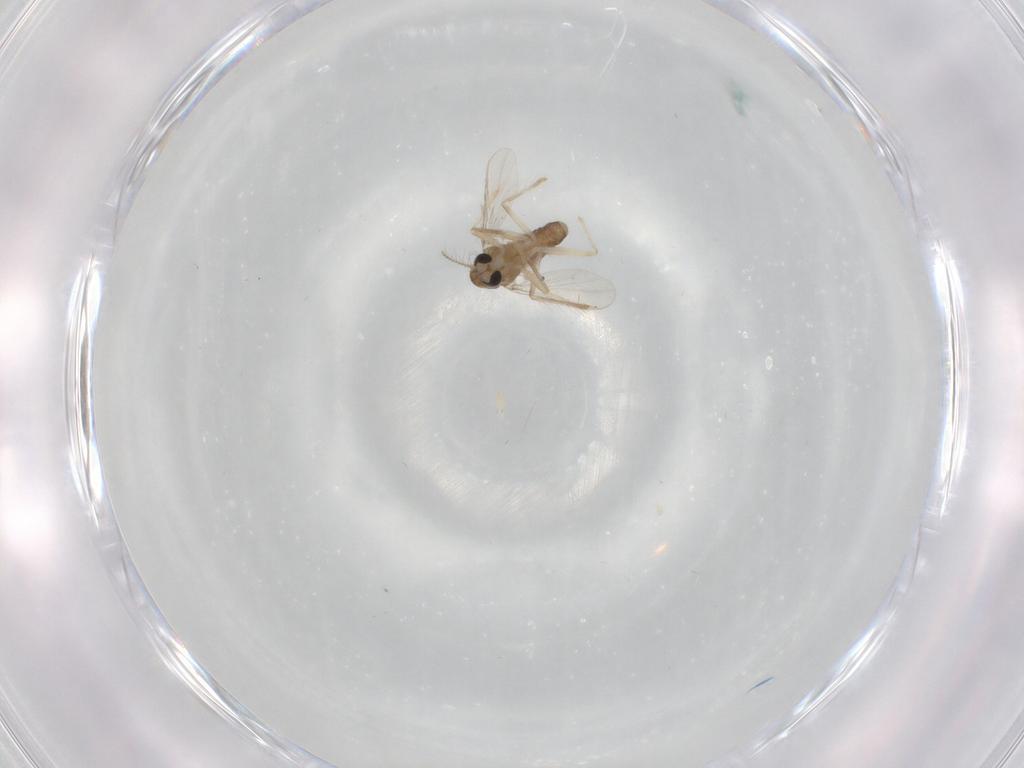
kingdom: Animalia
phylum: Arthropoda
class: Insecta
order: Diptera
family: Chironomidae
